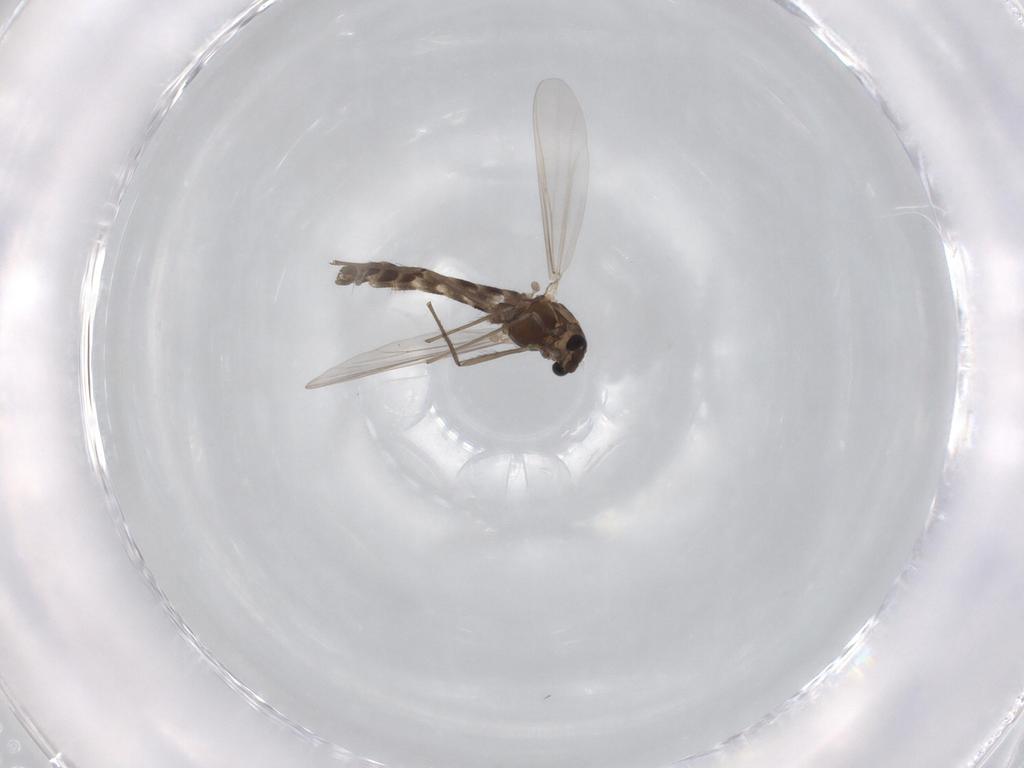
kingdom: Animalia
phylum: Arthropoda
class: Insecta
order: Diptera
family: Chironomidae
